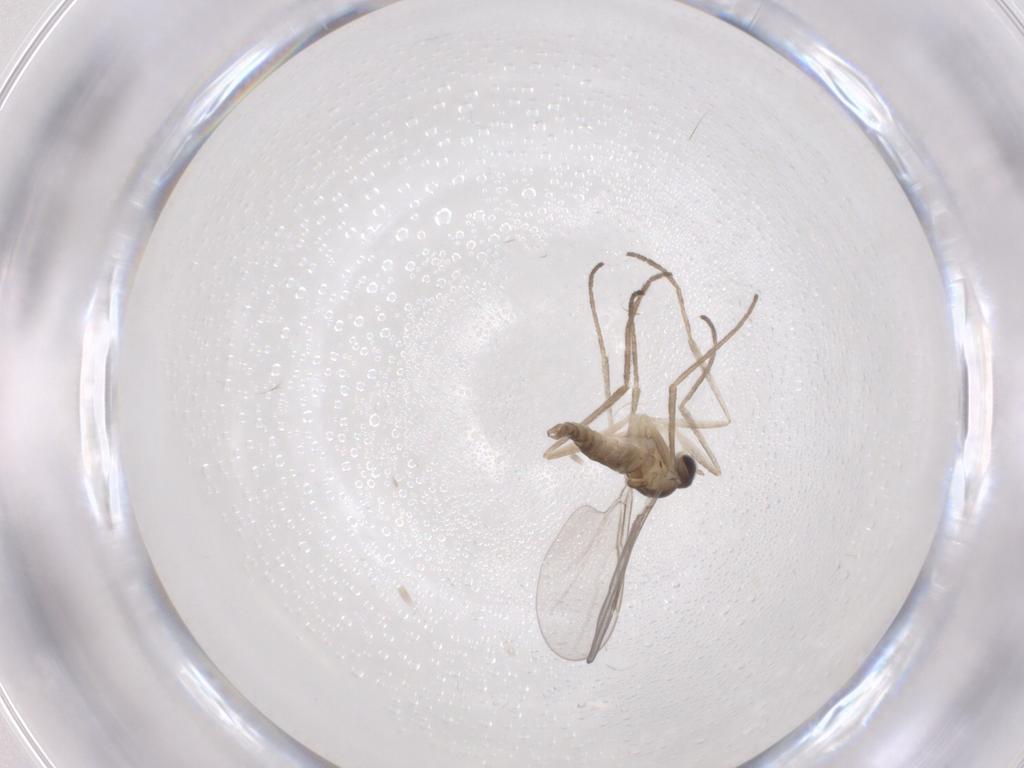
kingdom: Animalia
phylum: Arthropoda
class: Insecta
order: Diptera
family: Cecidomyiidae
